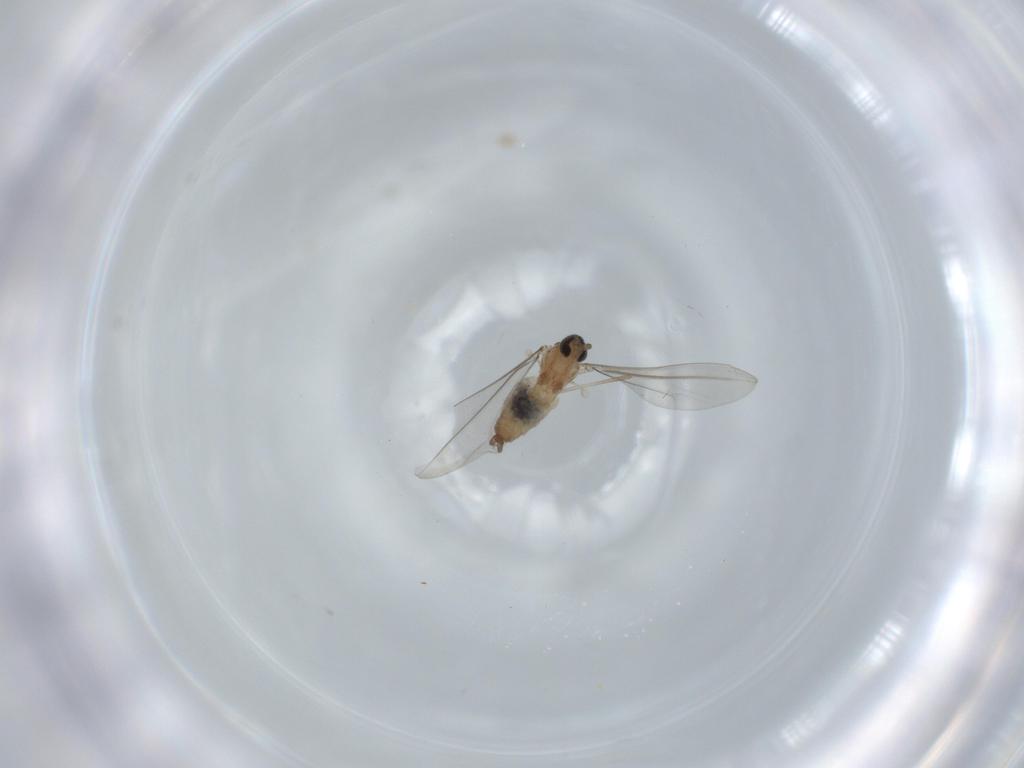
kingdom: Animalia
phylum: Arthropoda
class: Insecta
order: Diptera
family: Cecidomyiidae
